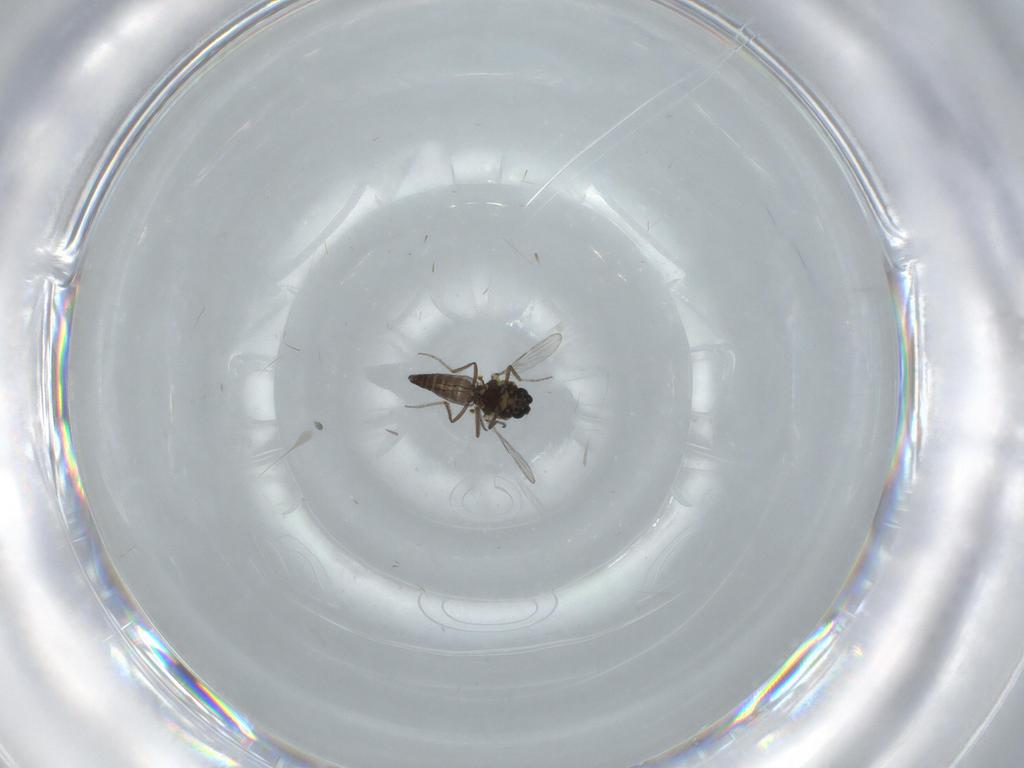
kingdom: Animalia
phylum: Arthropoda
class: Insecta
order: Diptera
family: Ceratopogonidae
